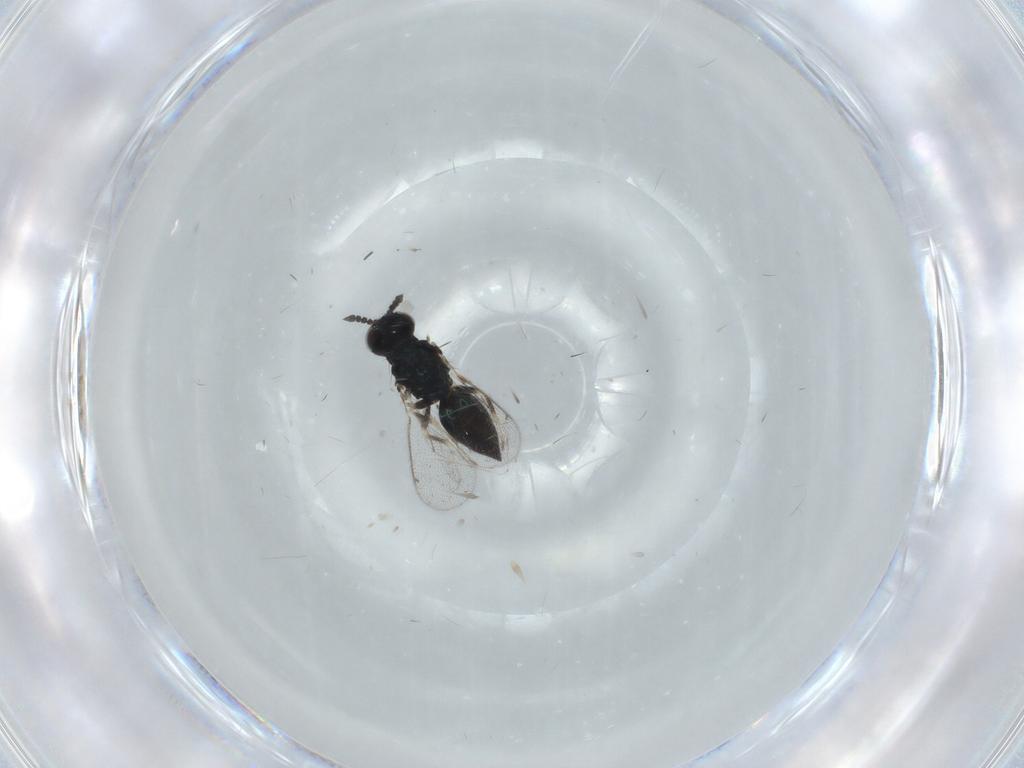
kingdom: Animalia
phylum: Arthropoda
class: Insecta
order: Hymenoptera
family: Eulophidae
